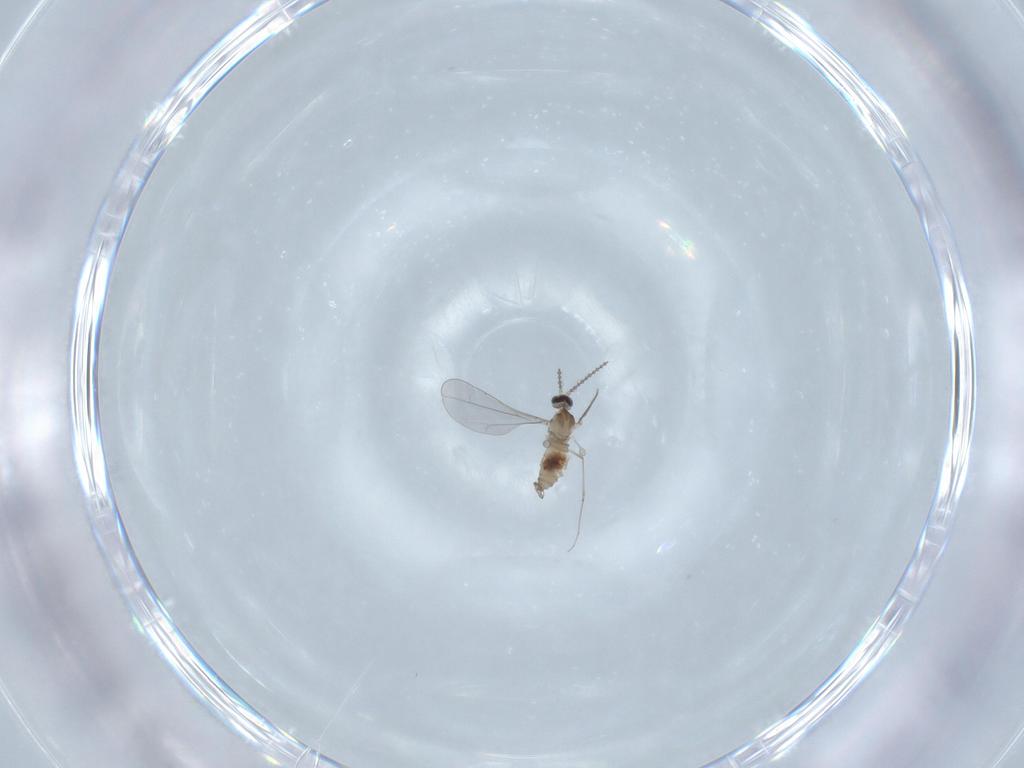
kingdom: Animalia
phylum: Arthropoda
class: Insecta
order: Diptera
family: Cecidomyiidae
